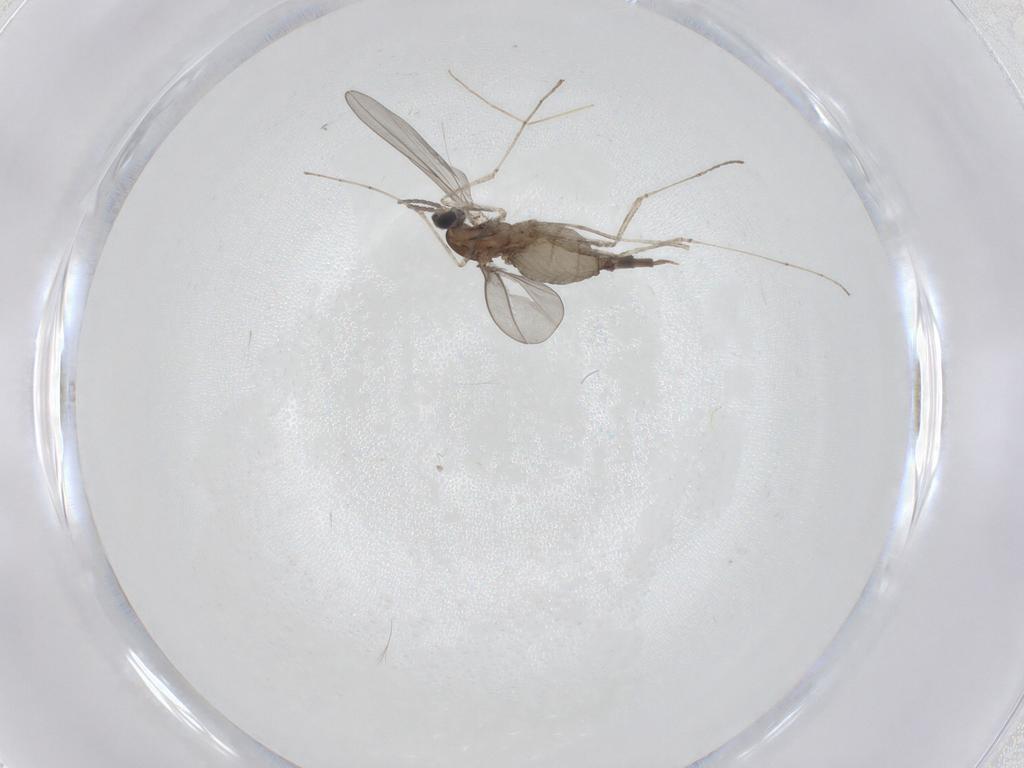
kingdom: Animalia
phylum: Arthropoda
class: Insecta
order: Diptera
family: Cecidomyiidae
